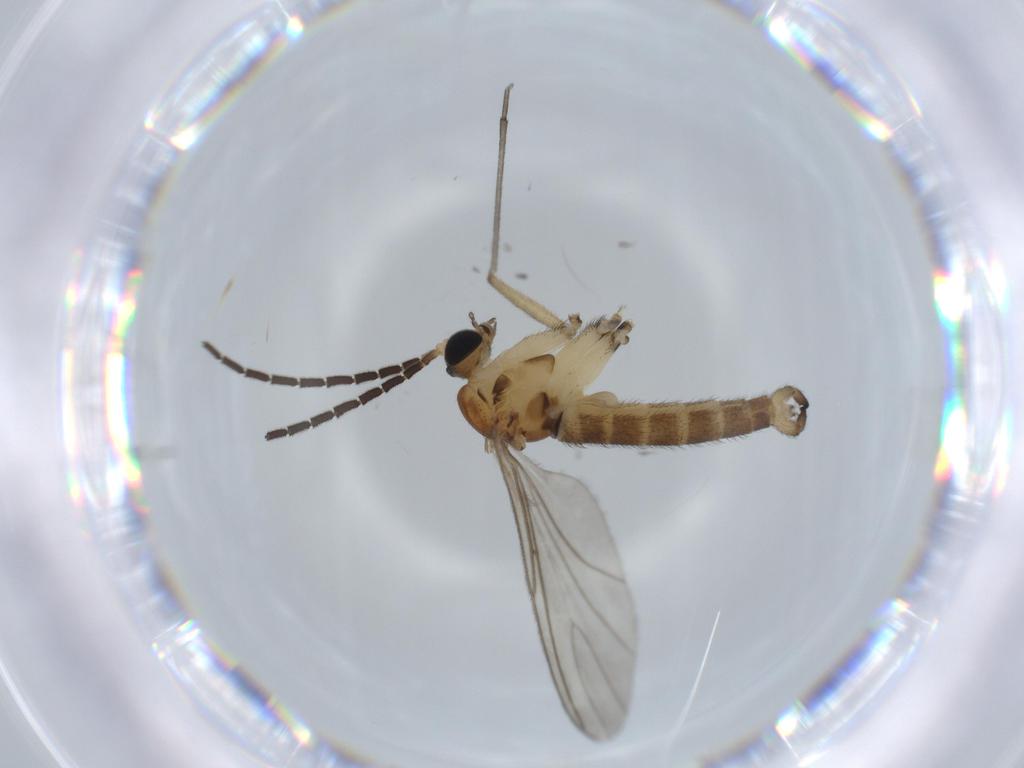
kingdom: Animalia
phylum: Arthropoda
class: Insecta
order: Diptera
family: Sciaridae
